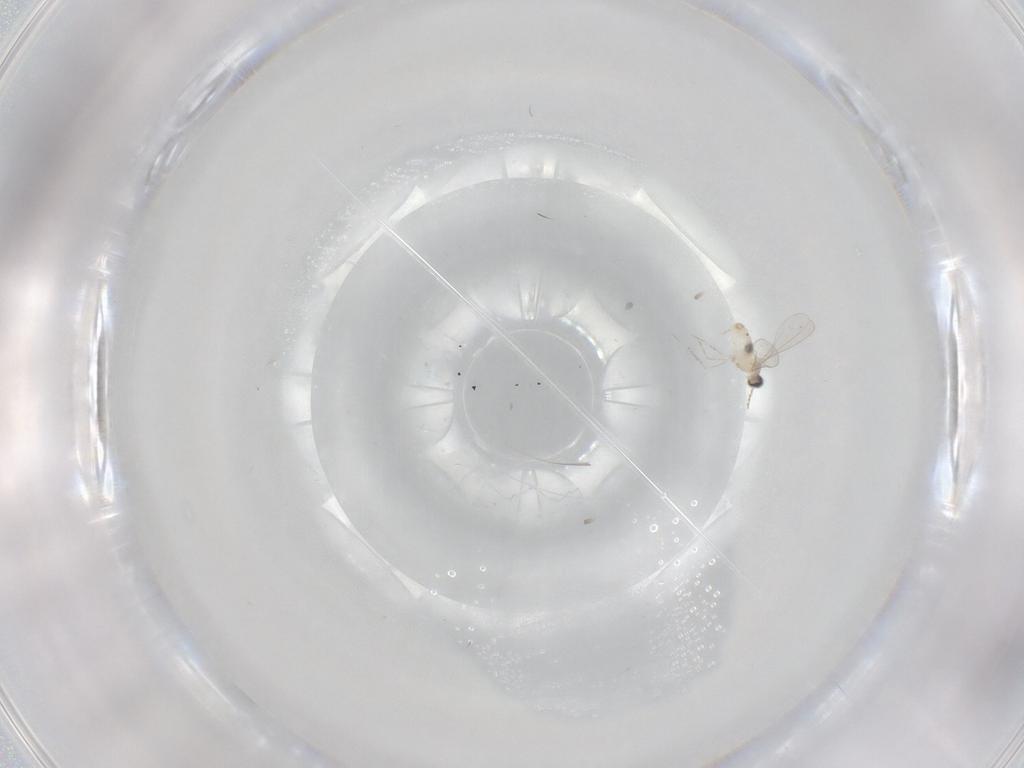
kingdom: Animalia
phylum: Arthropoda
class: Insecta
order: Diptera
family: Cecidomyiidae
